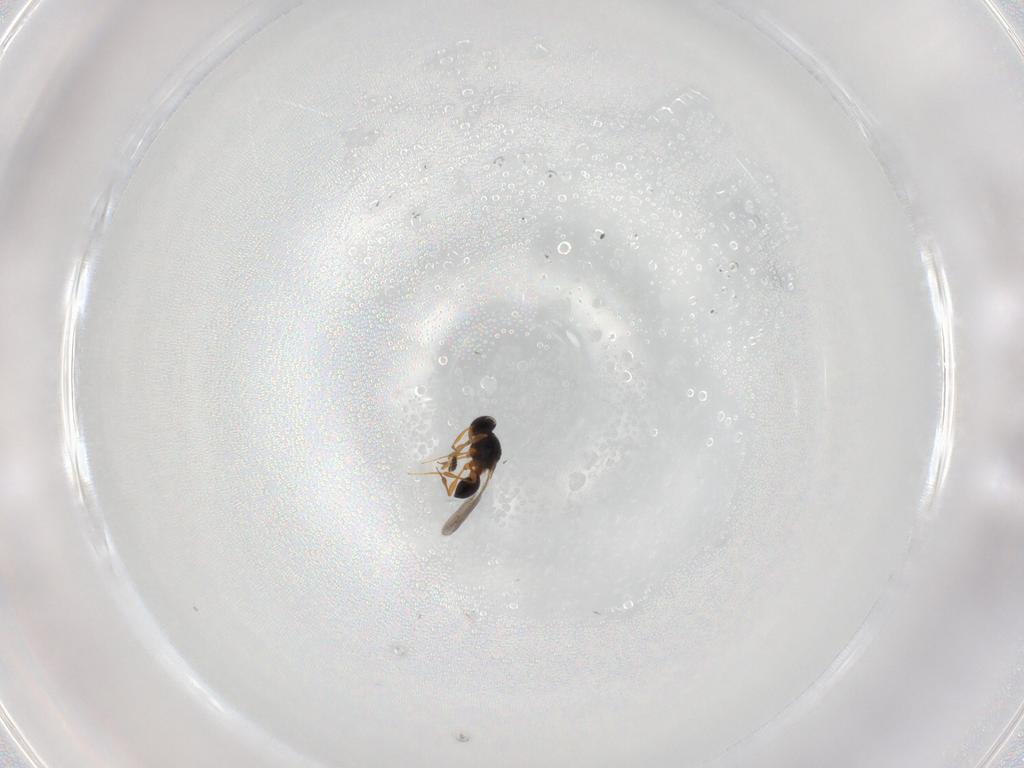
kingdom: Animalia
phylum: Arthropoda
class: Insecta
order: Hymenoptera
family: Platygastridae
